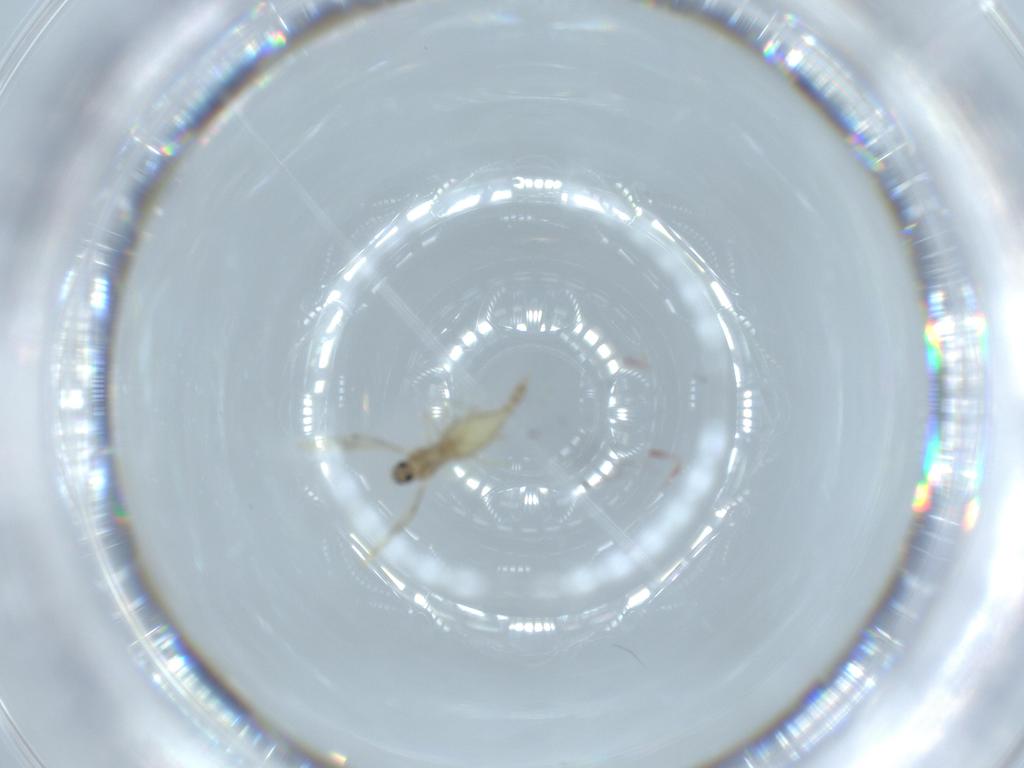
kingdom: Animalia
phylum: Arthropoda
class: Insecta
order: Diptera
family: Cecidomyiidae
